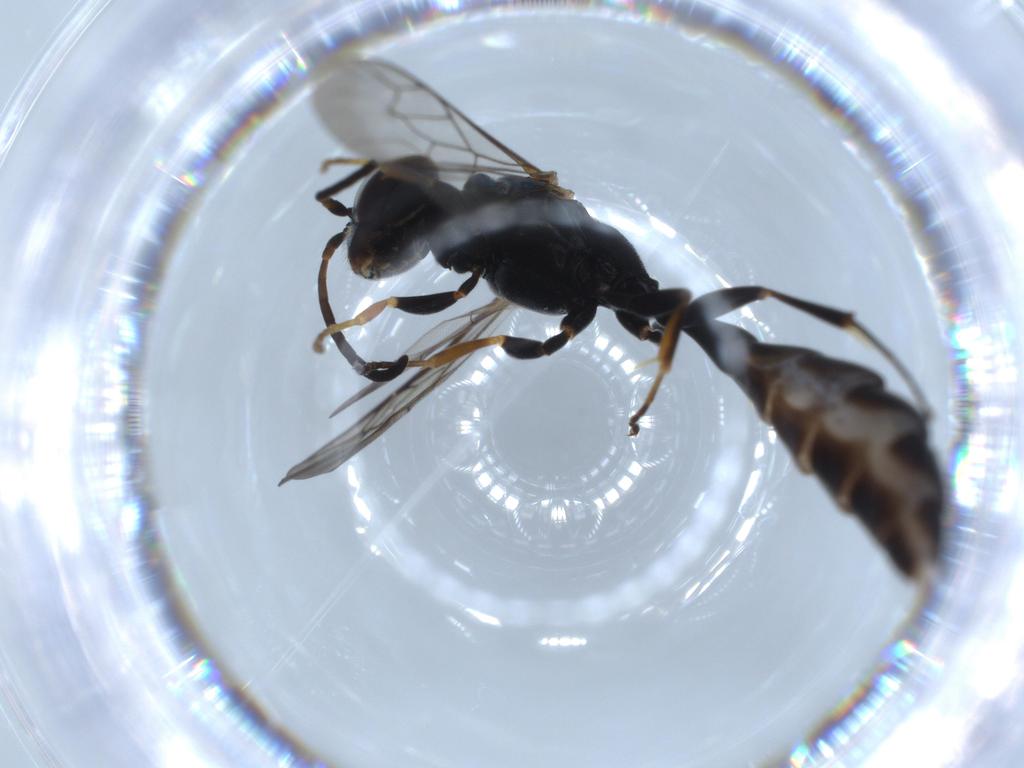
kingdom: Animalia
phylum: Arthropoda
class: Insecta
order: Hymenoptera
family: Crabronidae
